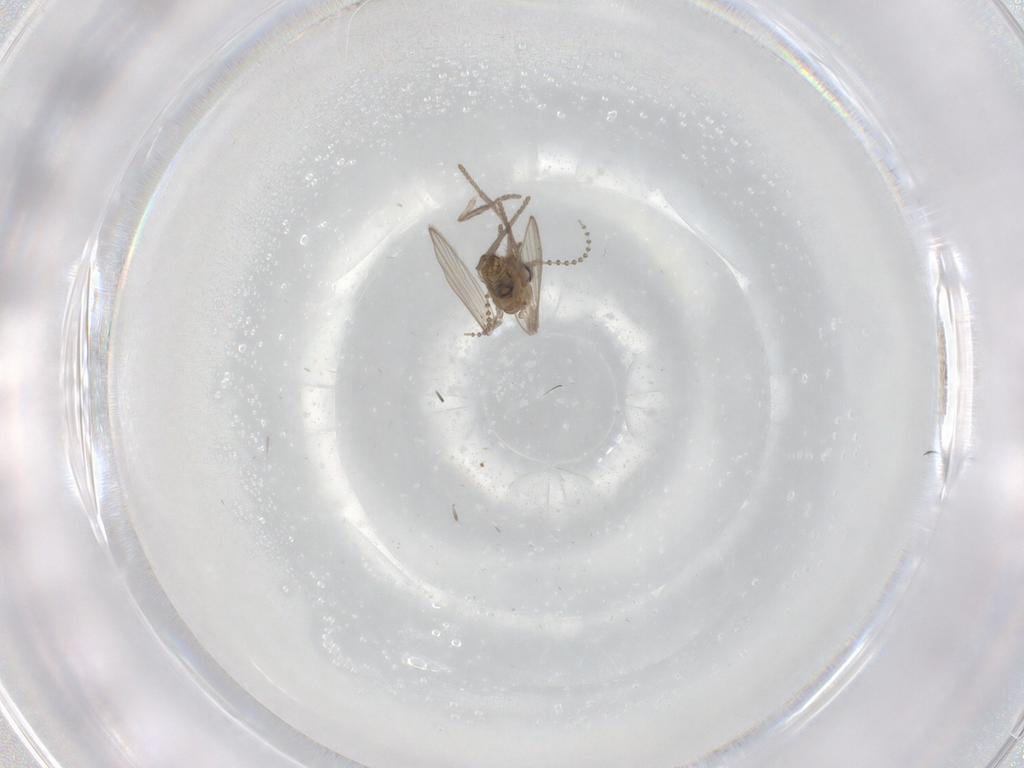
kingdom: Animalia
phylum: Arthropoda
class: Insecta
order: Diptera
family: Psychodidae
